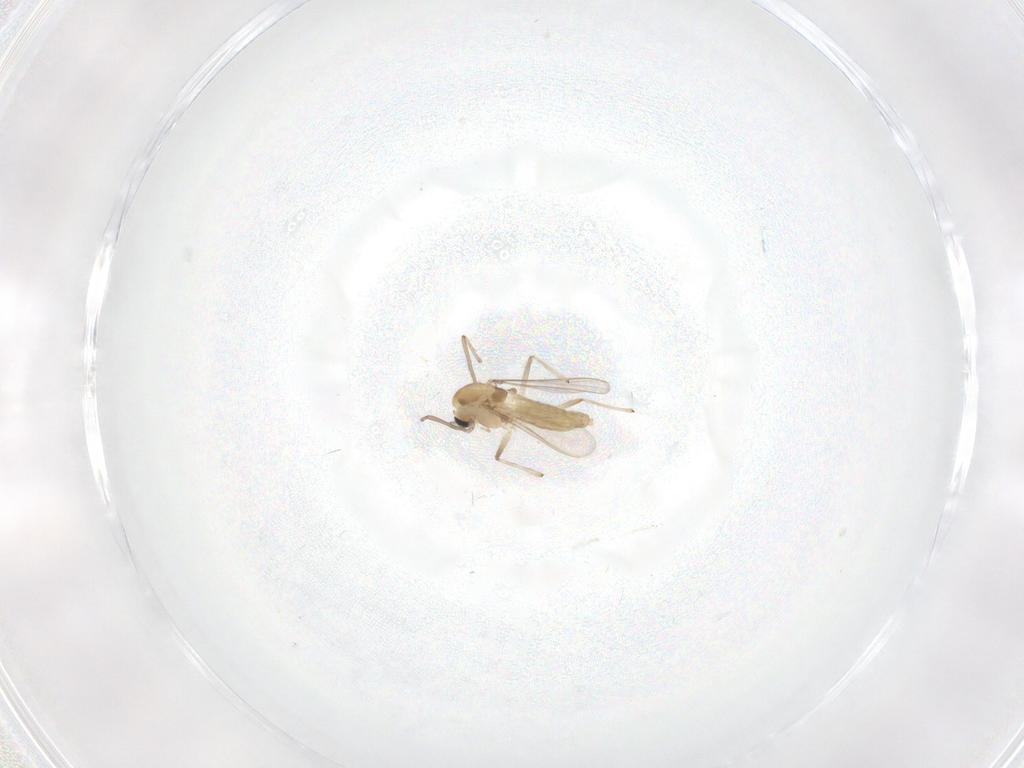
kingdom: Animalia
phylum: Arthropoda
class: Insecta
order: Diptera
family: Chironomidae
